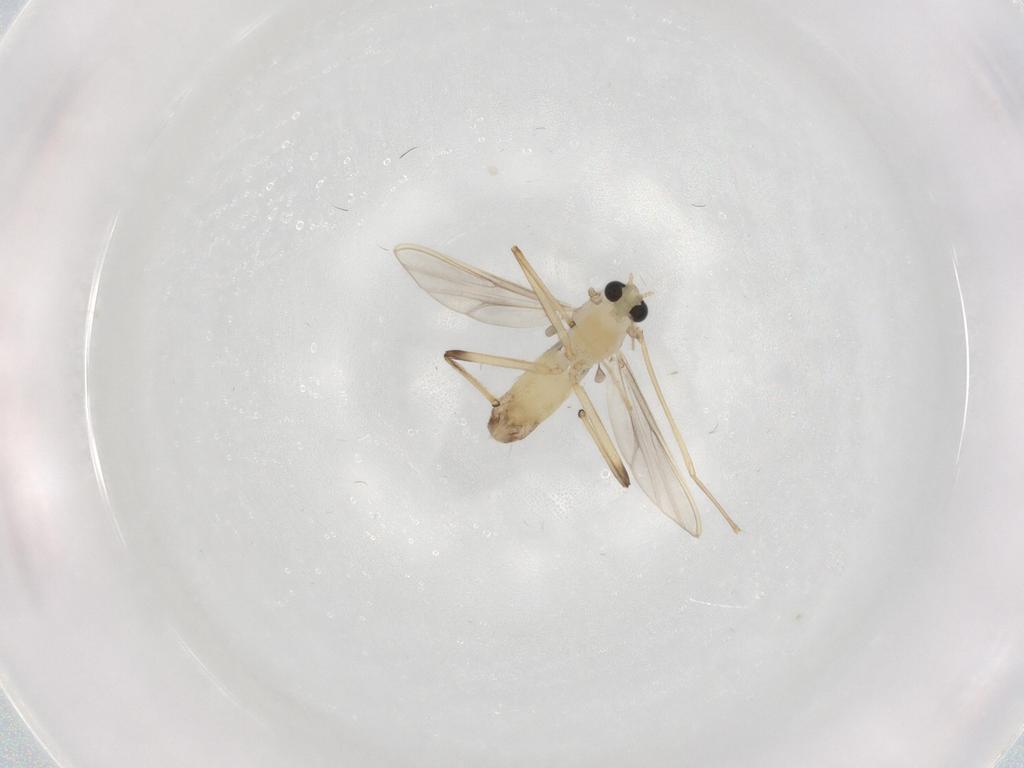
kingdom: Animalia
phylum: Arthropoda
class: Insecta
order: Diptera
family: Chironomidae
